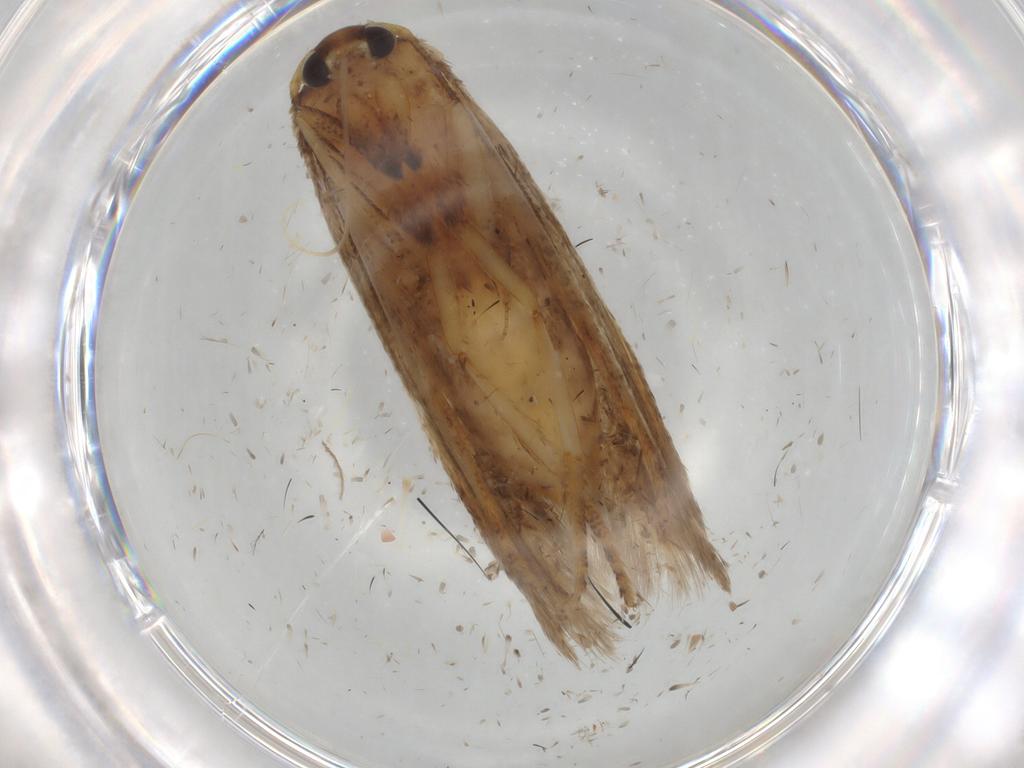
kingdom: Animalia
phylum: Arthropoda
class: Insecta
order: Lepidoptera
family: Blastobasidae
